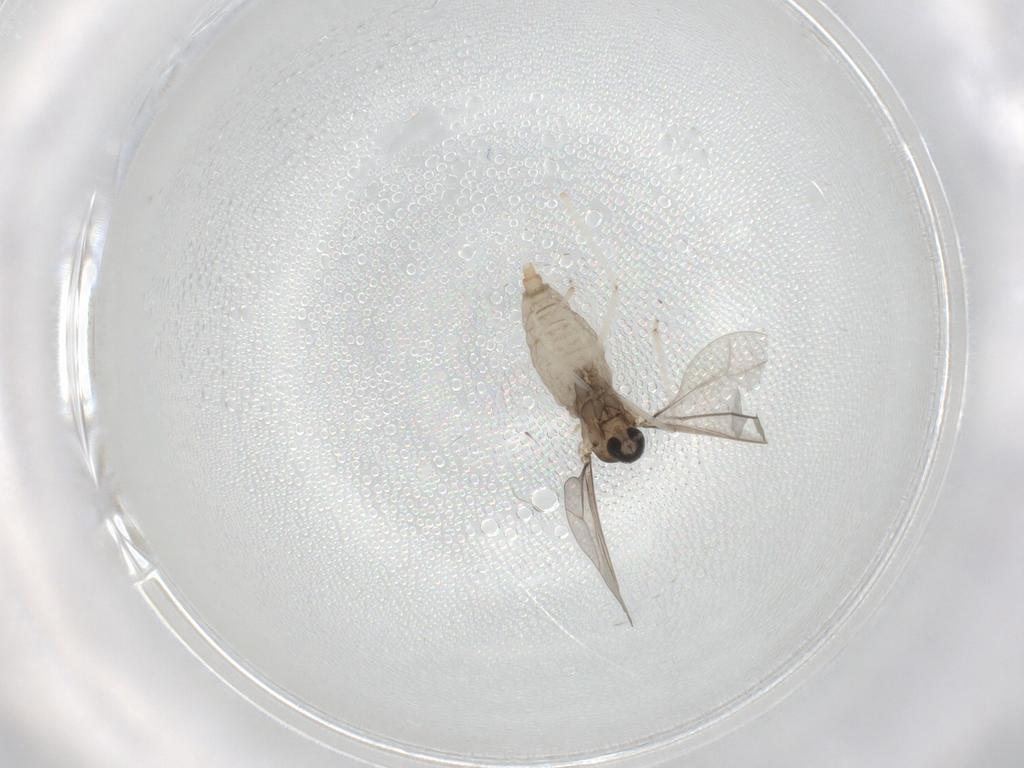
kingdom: Animalia
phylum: Arthropoda
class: Insecta
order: Diptera
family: Cecidomyiidae
